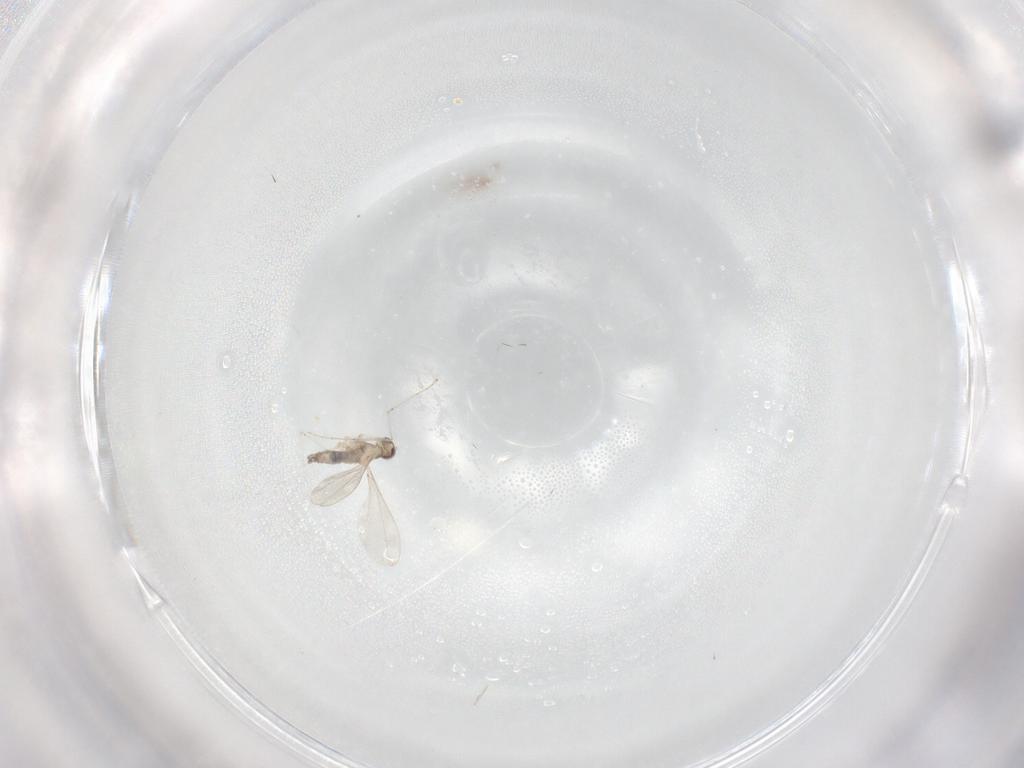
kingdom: Animalia
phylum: Arthropoda
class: Insecta
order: Diptera
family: Cecidomyiidae
